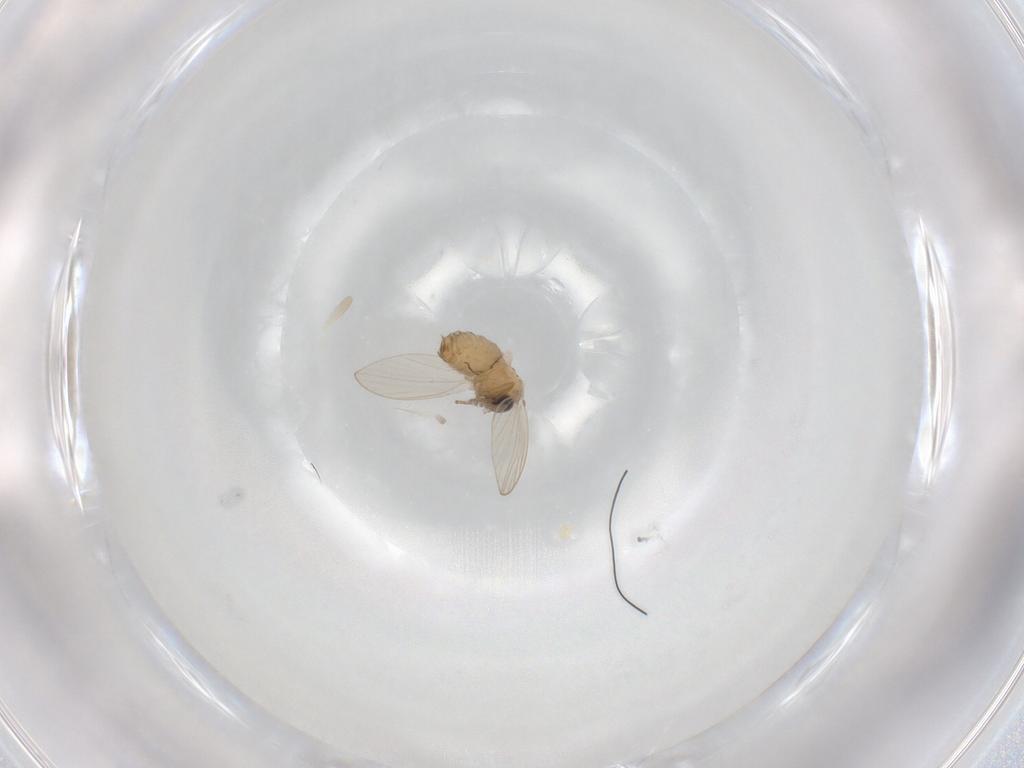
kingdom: Animalia
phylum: Arthropoda
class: Insecta
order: Diptera
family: Psychodidae
